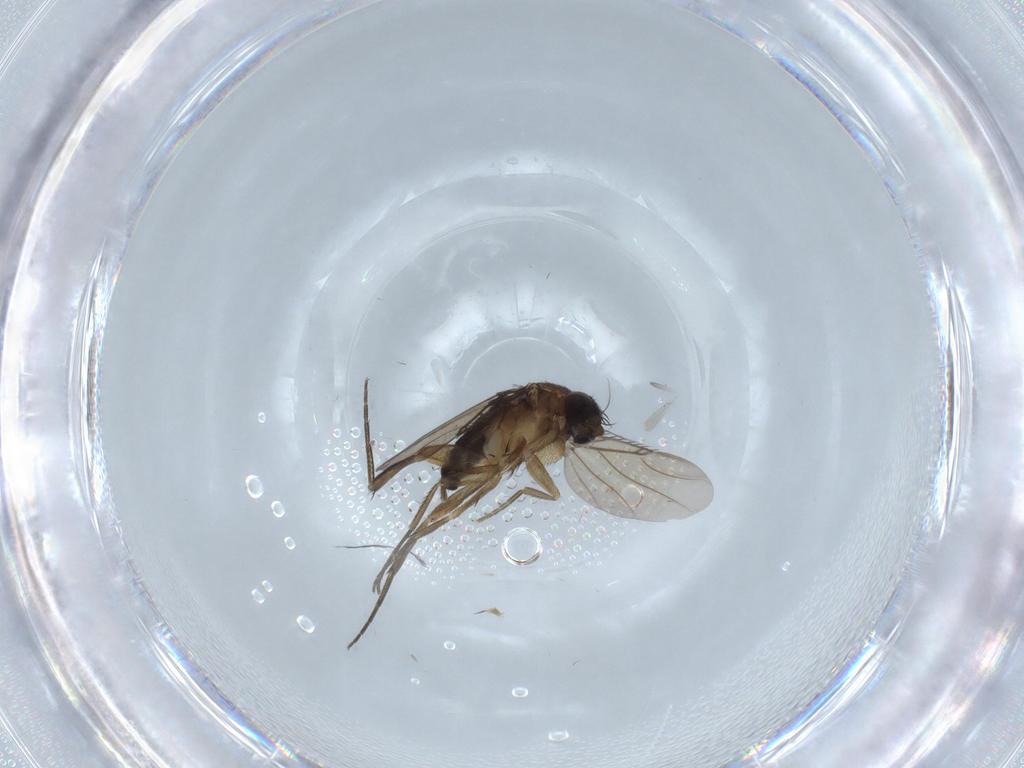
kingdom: Animalia
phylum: Arthropoda
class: Insecta
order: Diptera
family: Phoridae
